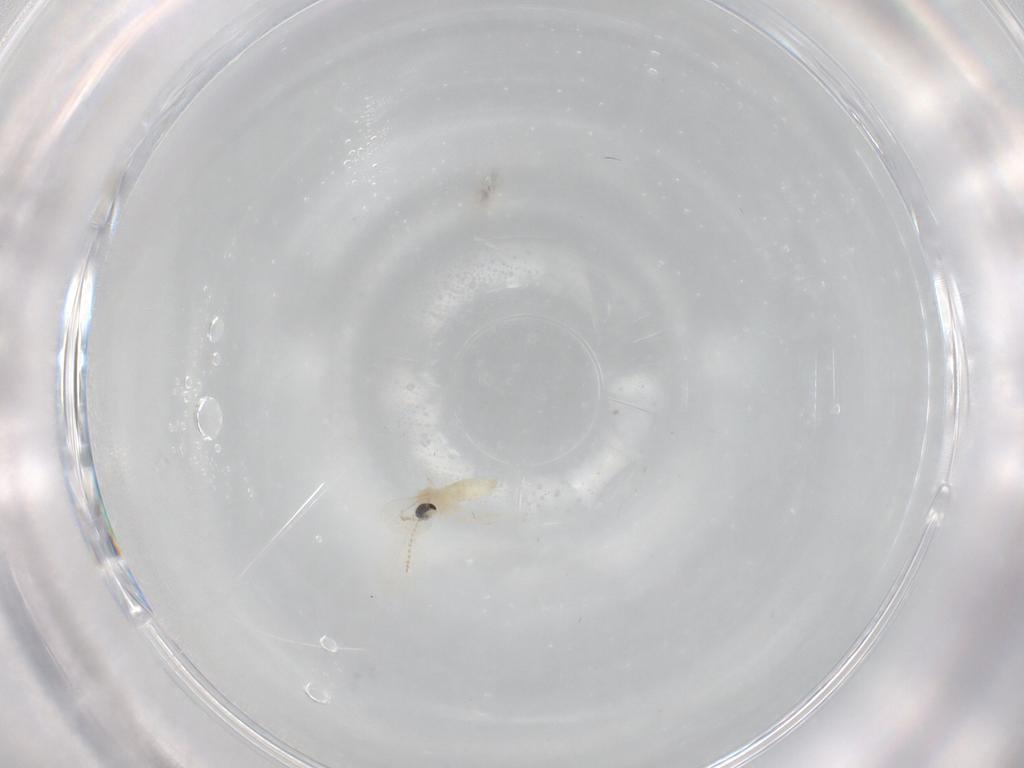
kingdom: Animalia
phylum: Arthropoda
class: Insecta
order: Diptera
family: Cecidomyiidae
